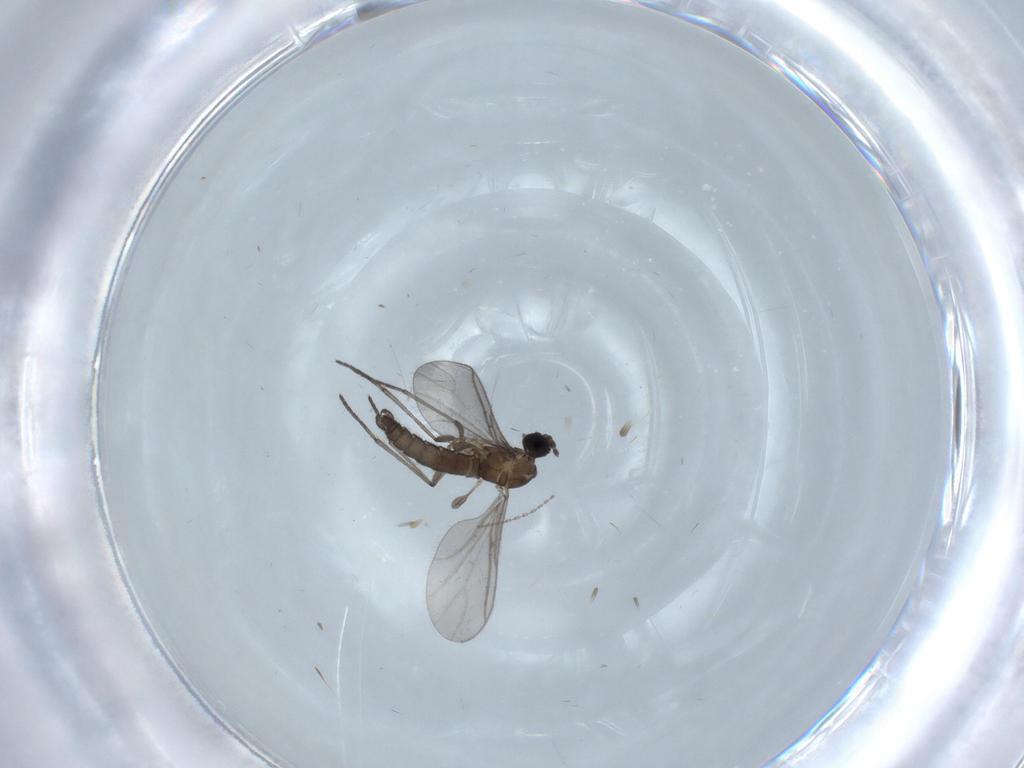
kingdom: Animalia
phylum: Arthropoda
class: Insecta
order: Diptera
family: Cecidomyiidae
